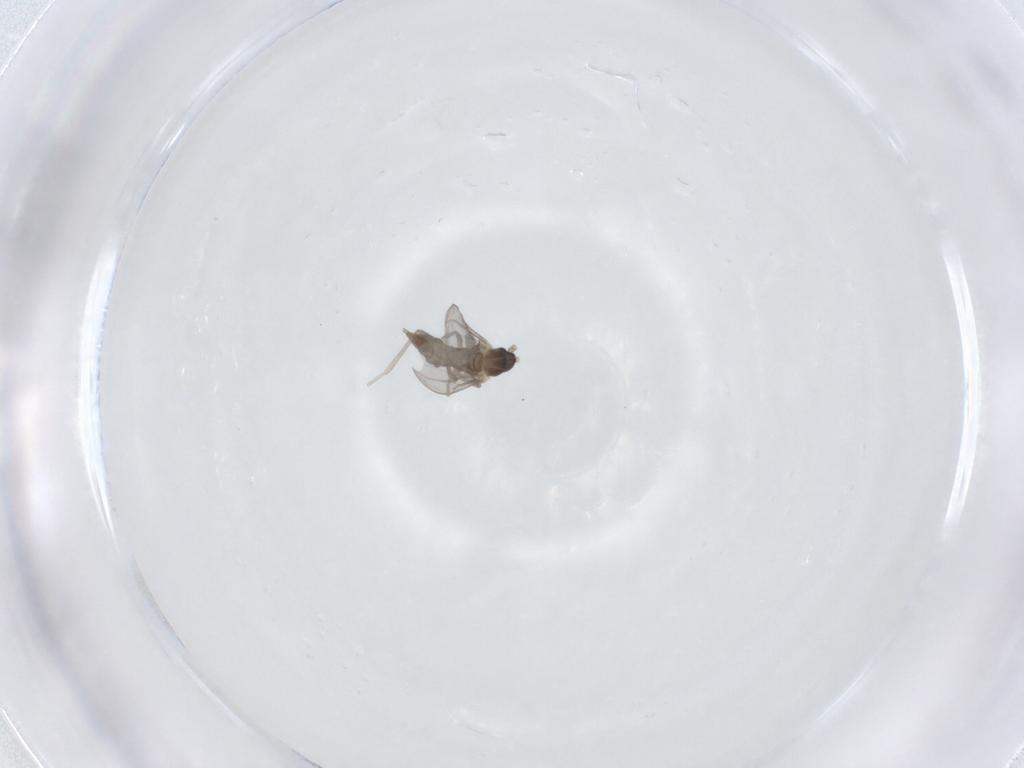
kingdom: Animalia
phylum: Arthropoda
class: Insecta
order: Diptera
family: Cecidomyiidae
